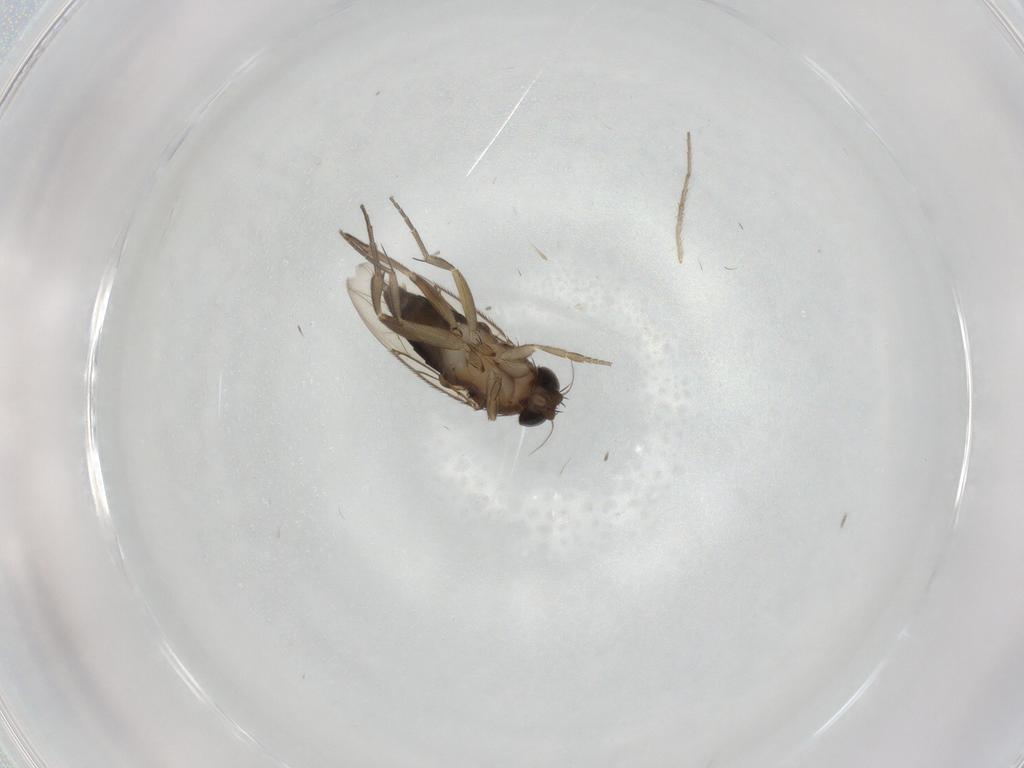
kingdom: Animalia
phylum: Arthropoda
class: Insecta
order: Diptera
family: Phoridae
